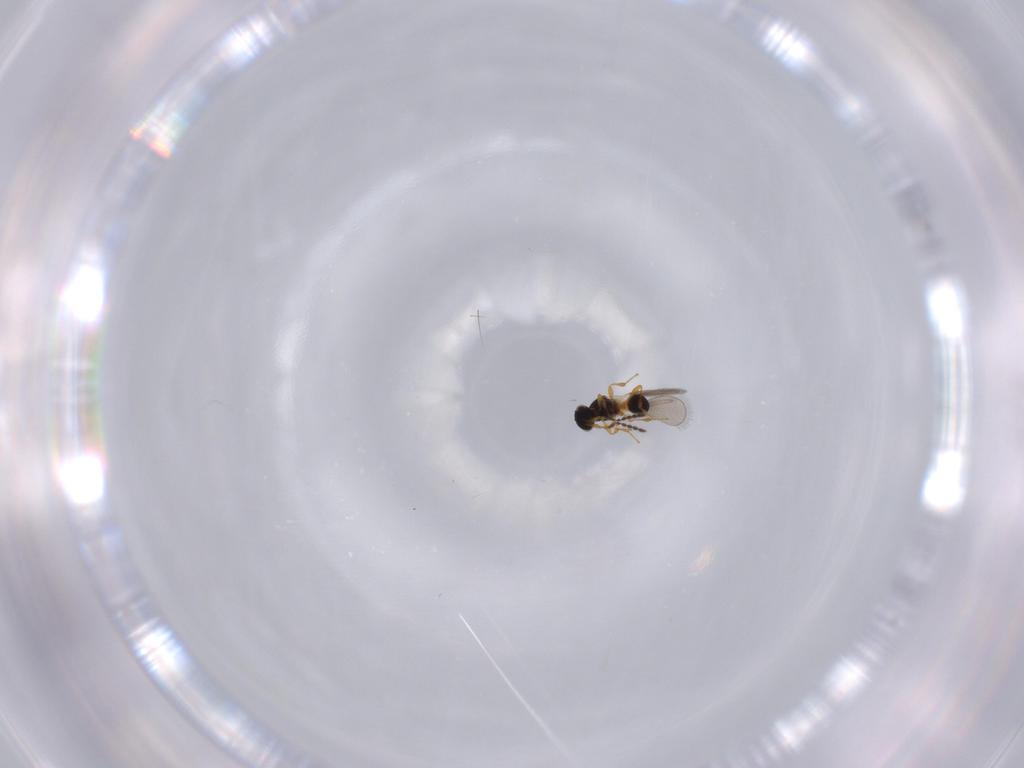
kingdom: Animalia
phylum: Arthropoda
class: Insecta
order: Hymenoptera
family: Platygastridae
